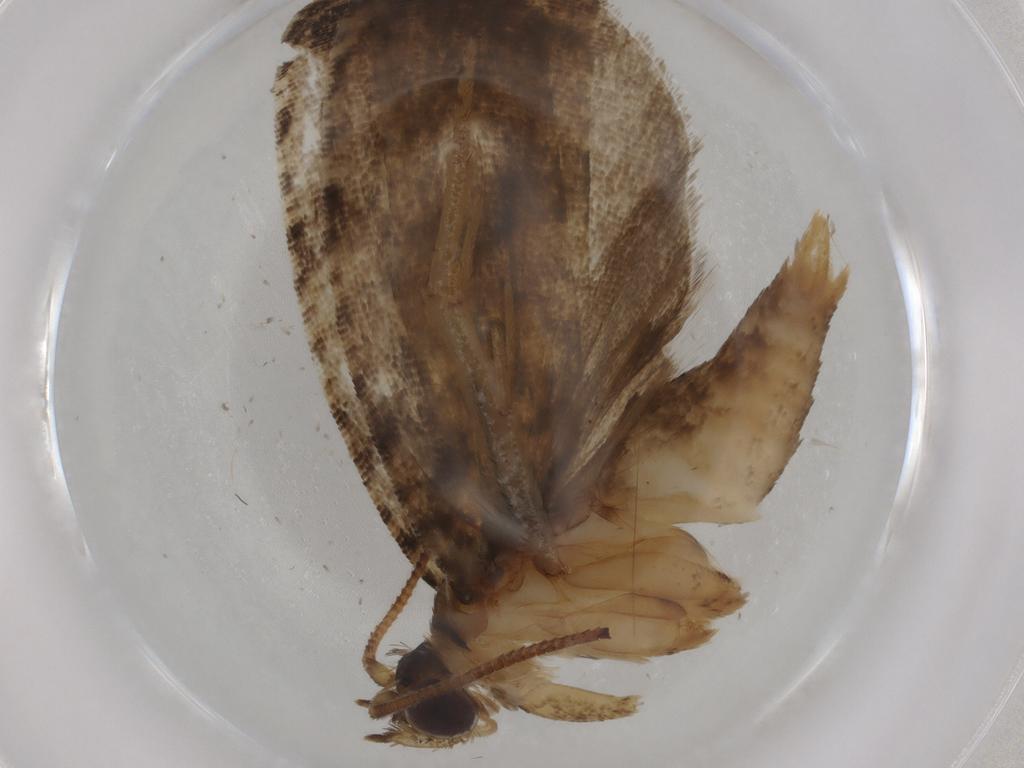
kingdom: Animalia
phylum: Arthropoda
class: Insecta
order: Lepidoptera
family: Tortricidae
